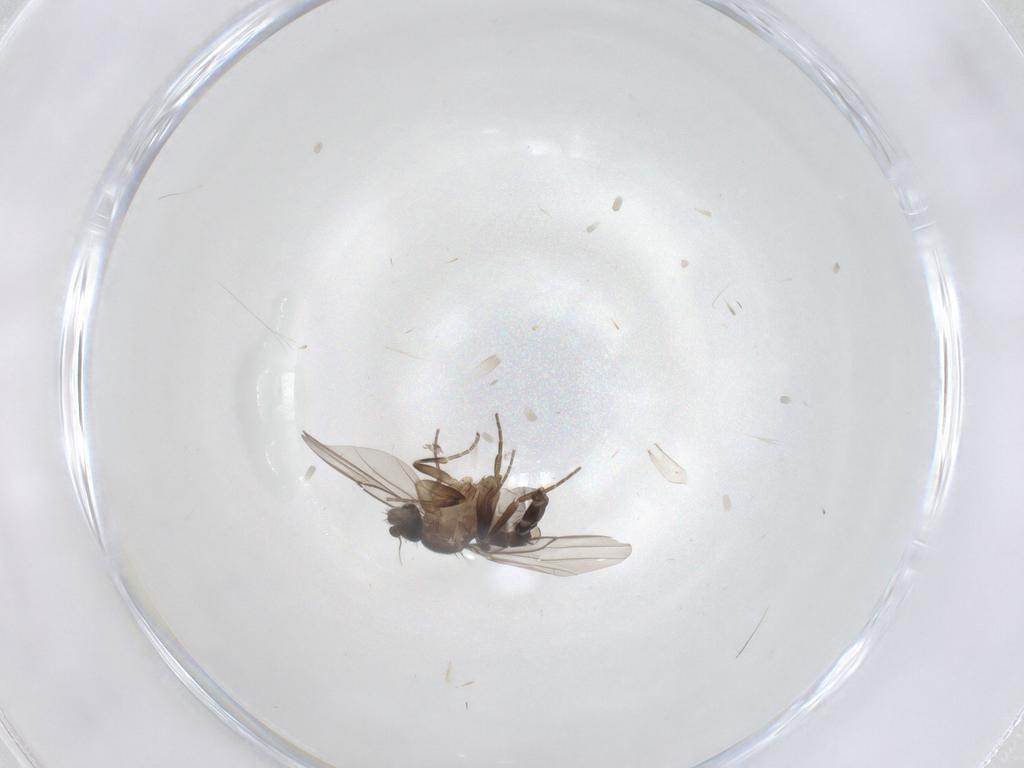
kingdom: Animalia
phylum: Arthropoda
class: Insecta
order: Diptera
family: Phoridae
